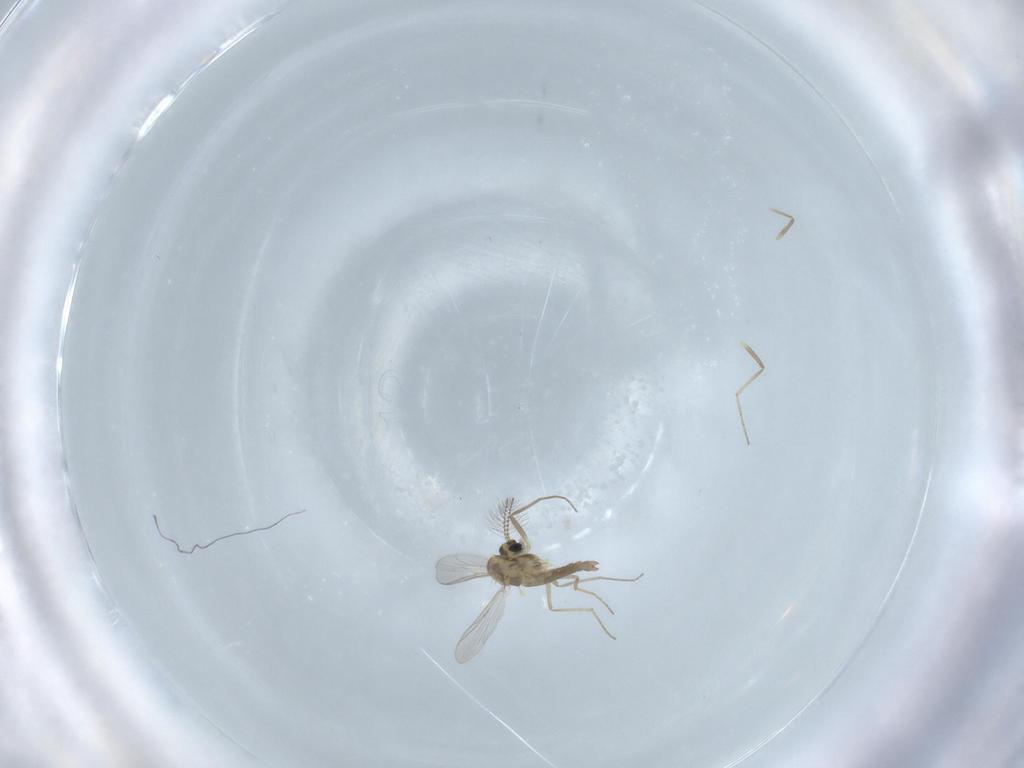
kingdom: Animalia
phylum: Arthropoda
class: Insecta
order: Diptera
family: Chironomidae
